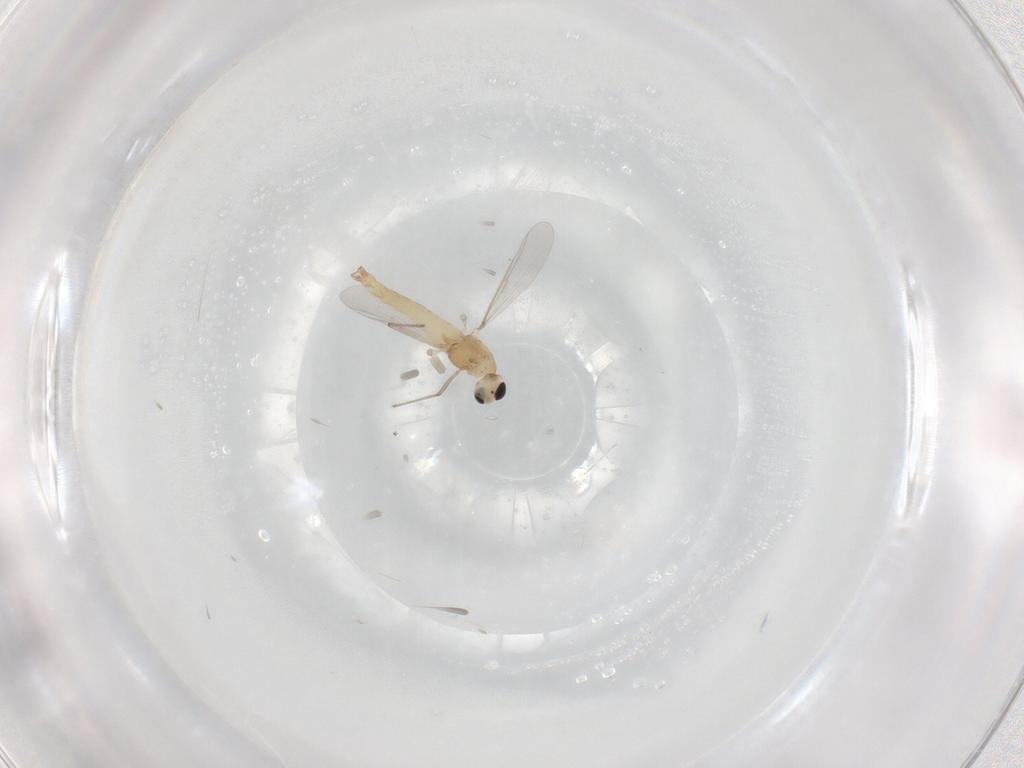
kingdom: Animalia
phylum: Arthropoda
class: Insecta
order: Diptera
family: Chironomidae
